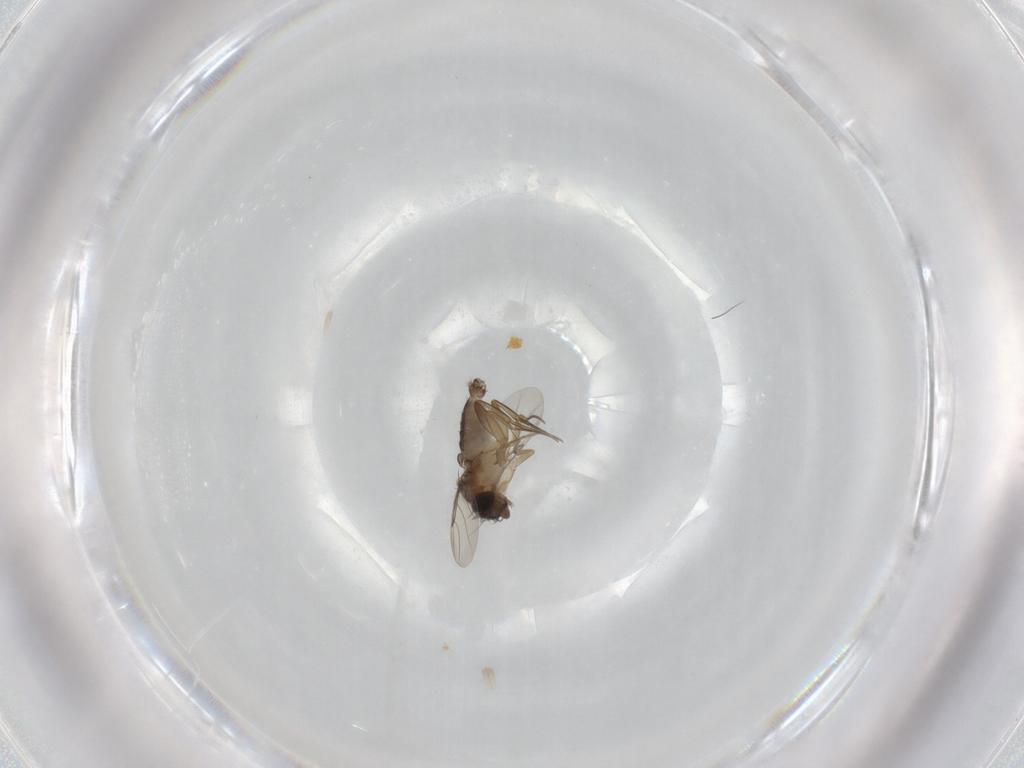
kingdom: Animalia
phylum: Arthropoda
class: Insecta
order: Diptera
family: Phoridae
